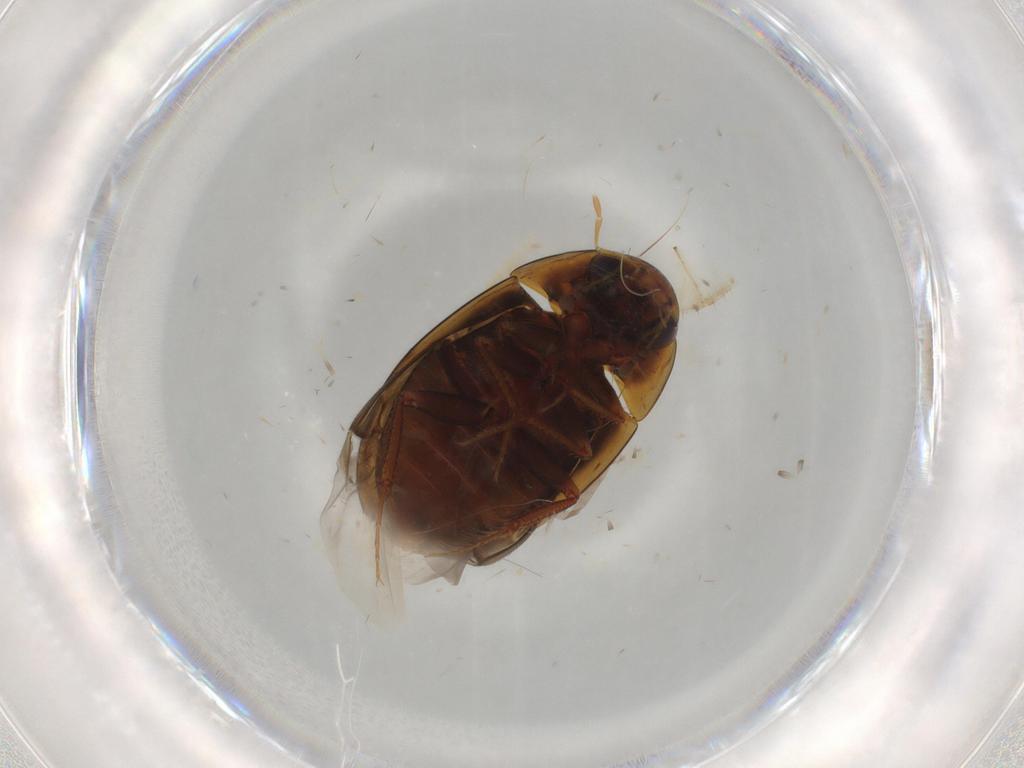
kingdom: Animalia
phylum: Arthropoda
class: Insecta
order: Coleoptera
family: Hydrophilidae
